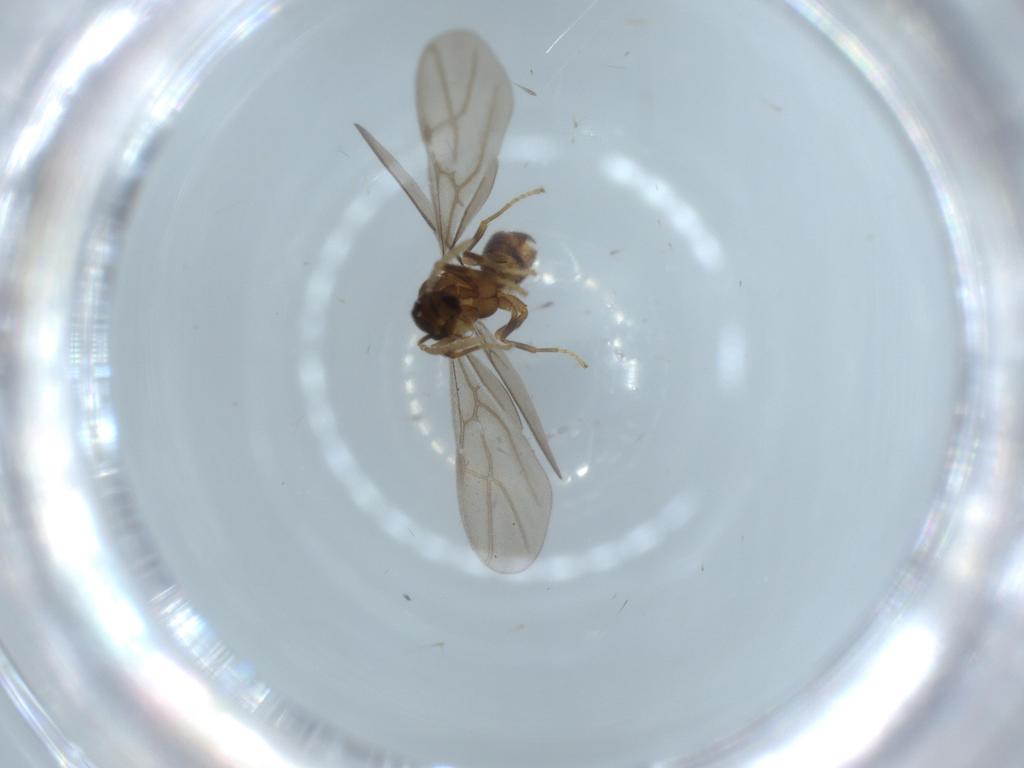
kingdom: Animalia
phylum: Arthropoda
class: Insecta
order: Hymenoptera
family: Formicidae
